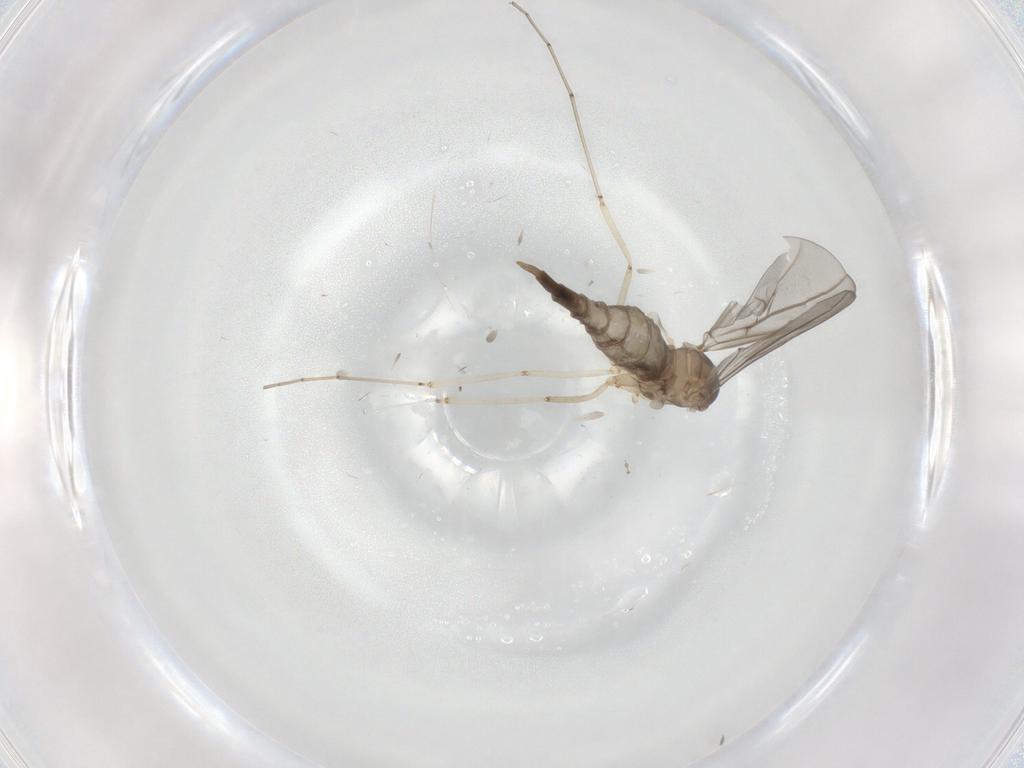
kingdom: Animalia
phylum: Arthropoda
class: Insecta
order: Diptera
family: Cecidomyiidae
